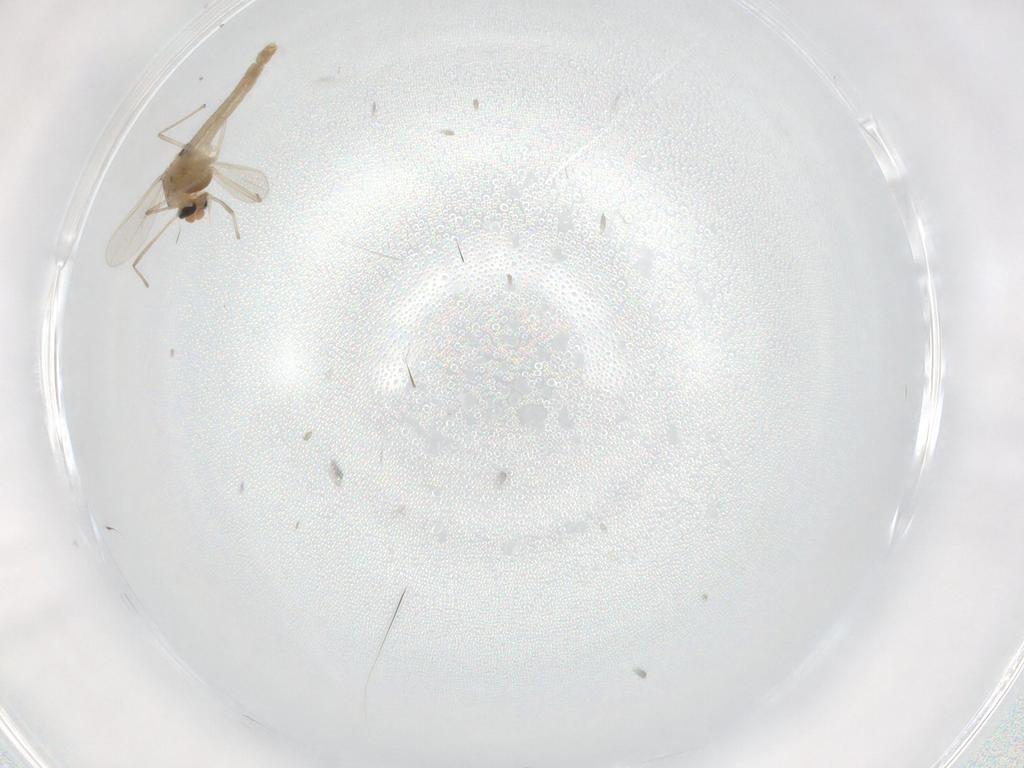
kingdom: Animalia
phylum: Arthropoda
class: Insecta
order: Diptera
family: Chironomidae
